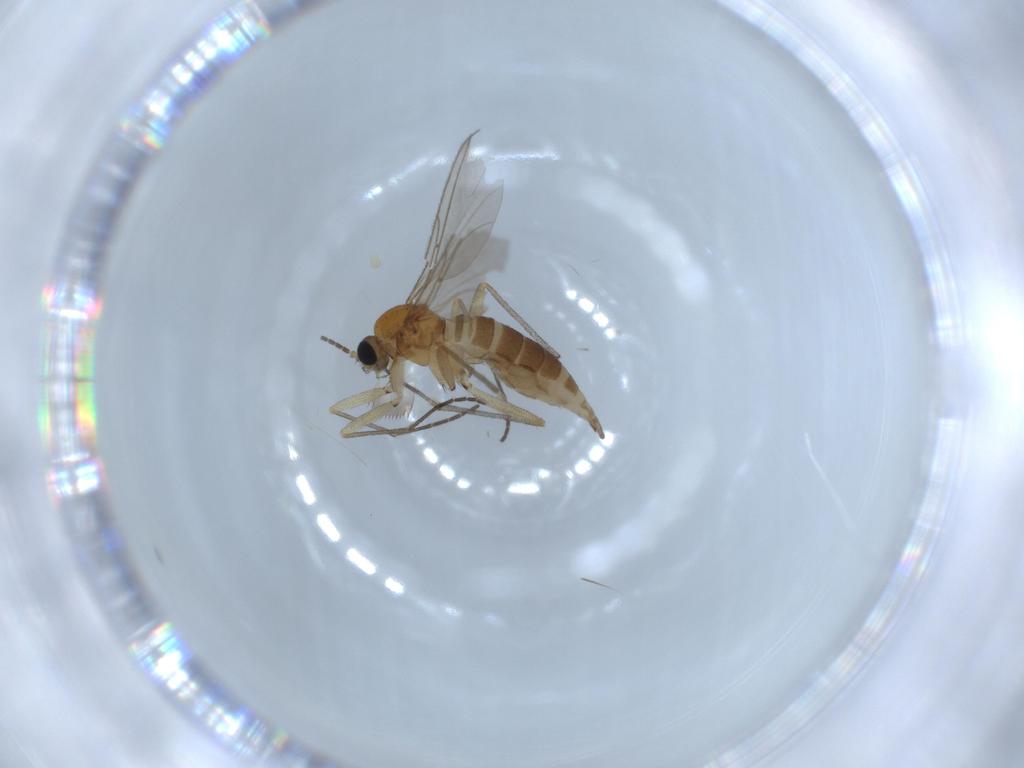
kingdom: Animalia
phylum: Arthropoda
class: Insecta
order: Diptera
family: Sciaridae
